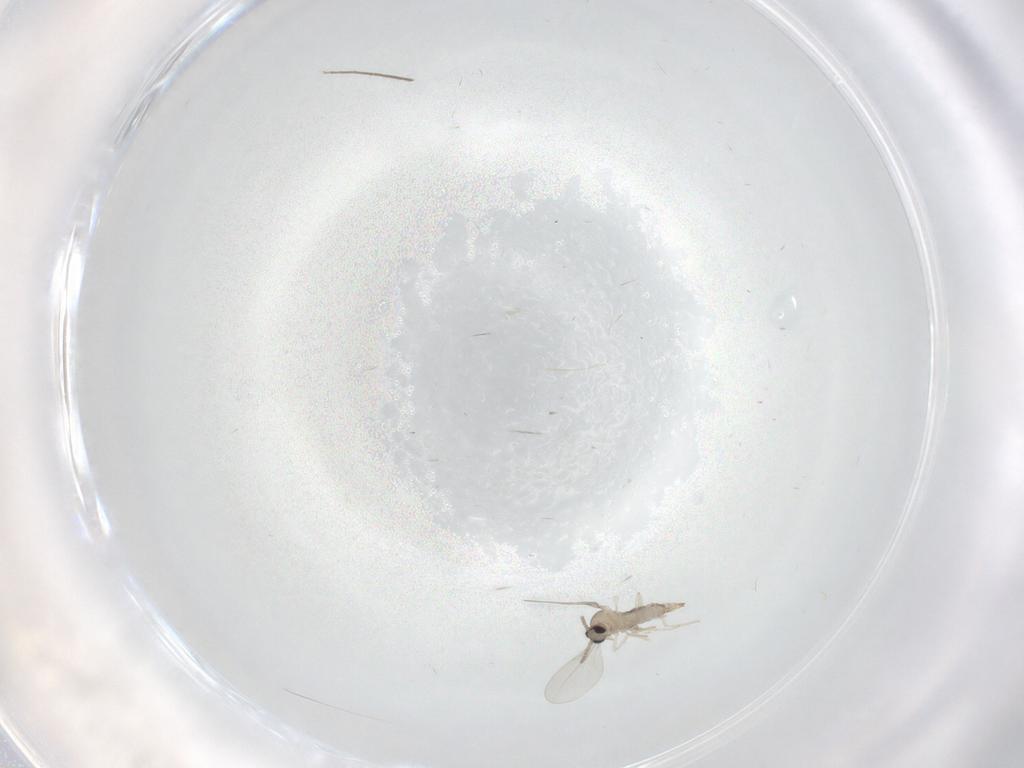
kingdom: Animalia
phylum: Arthropoda
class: Insecta
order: Diptera
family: Cecidomyiidae
